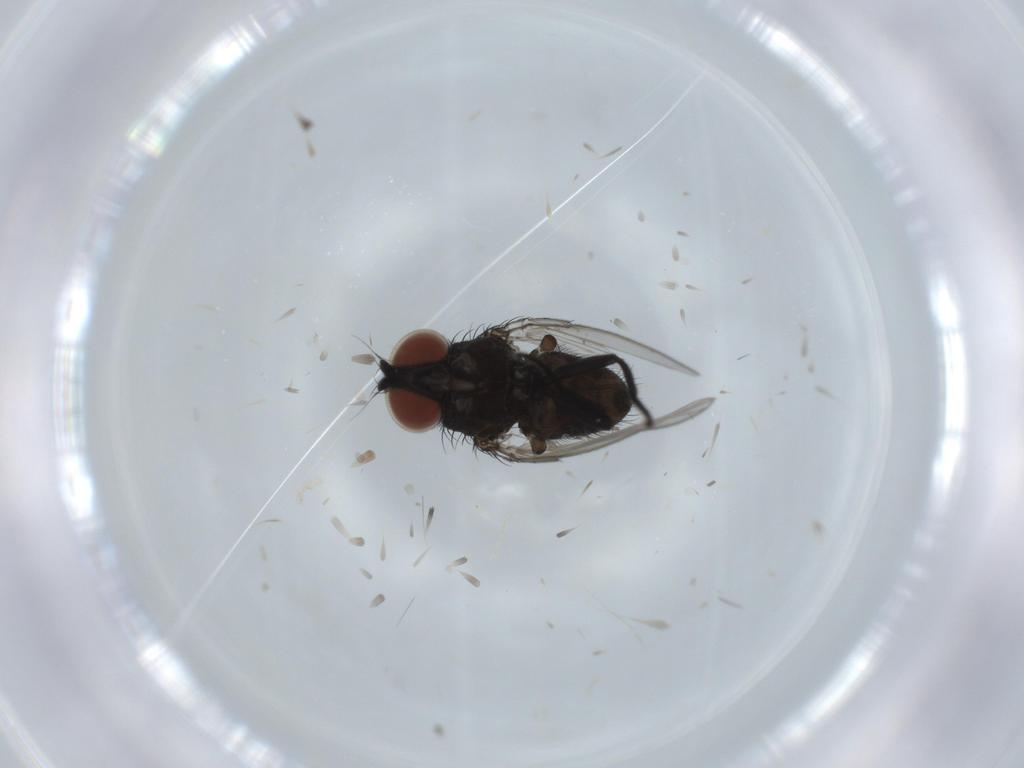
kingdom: Animalia
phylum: Arthropoda
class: Insecta
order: Diptera
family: Milichiidae
